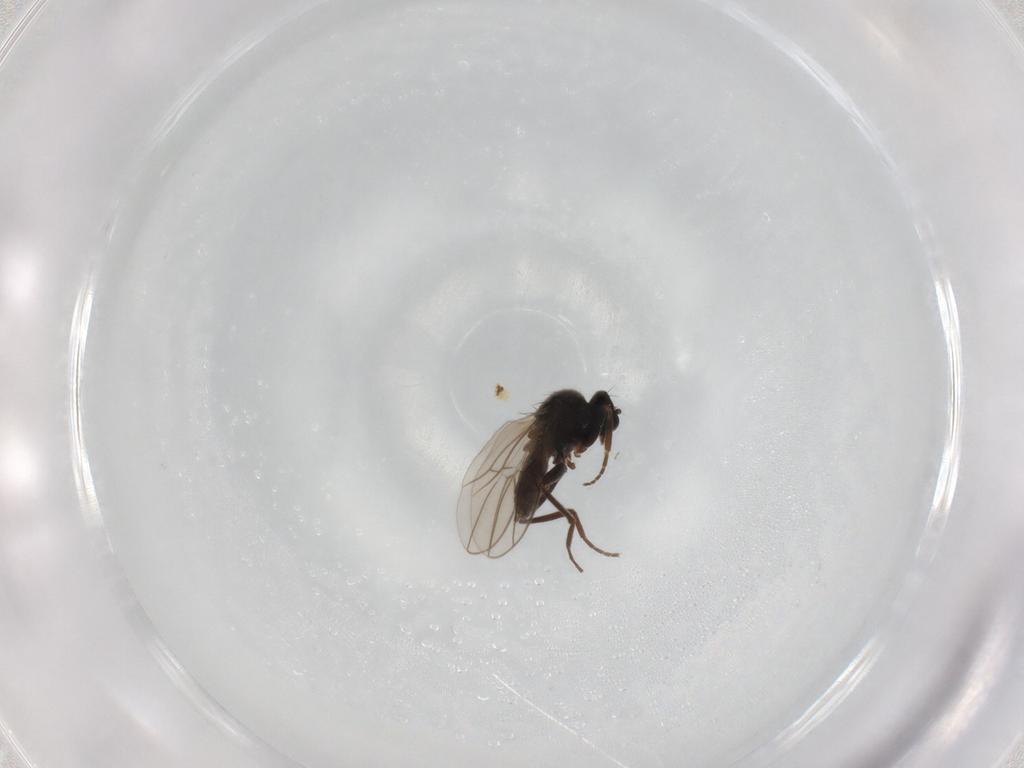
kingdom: Animalia
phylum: Arthropoda
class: Insecta
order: Diptera
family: Hybotidae
